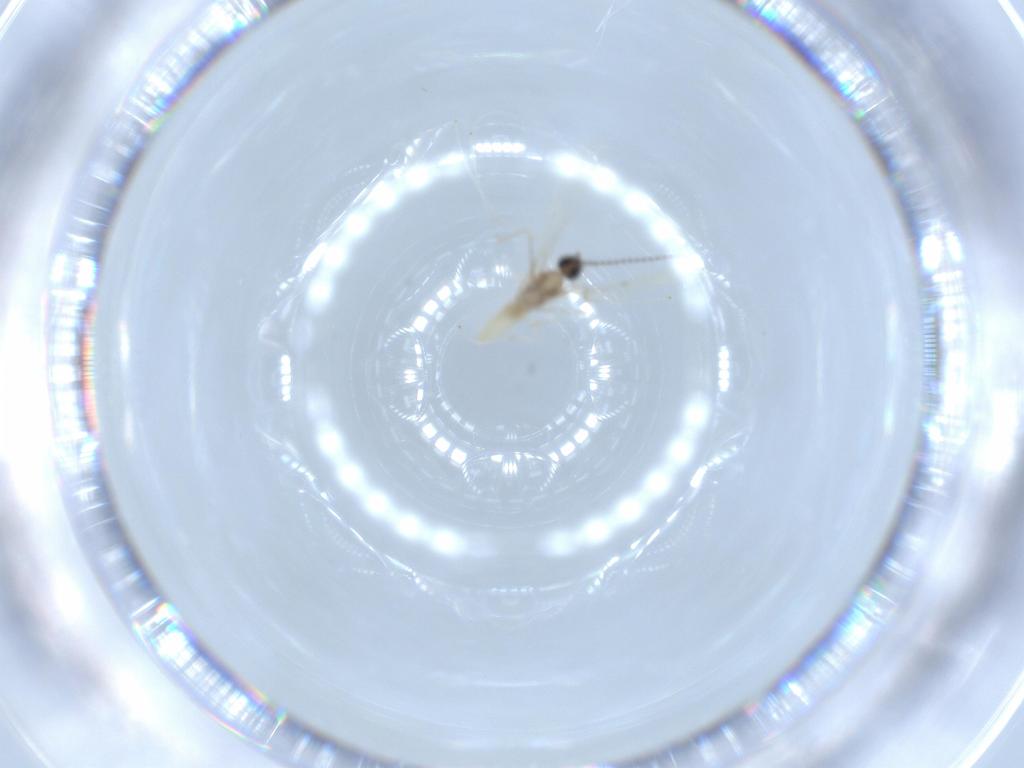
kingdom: Animalia
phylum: Arthropoda
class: Insecta
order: Diptera
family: Cecidomyiidae
